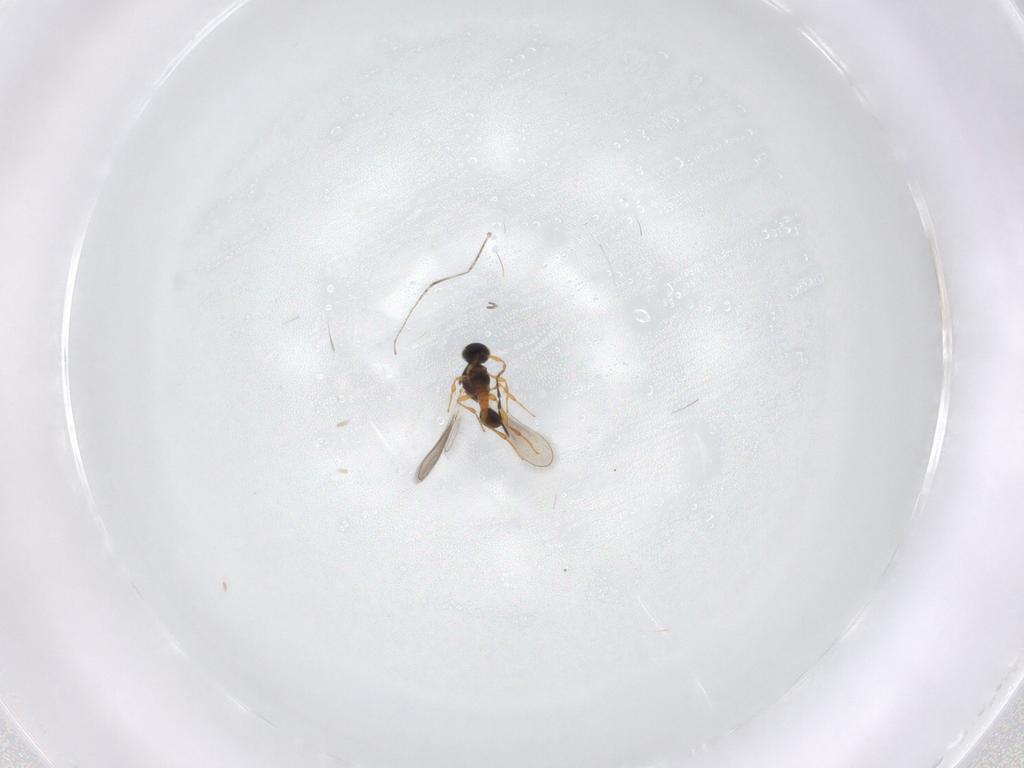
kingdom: Animalia
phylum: Arthropoda
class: Insecta
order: Hymenoptera
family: Platygastridae
